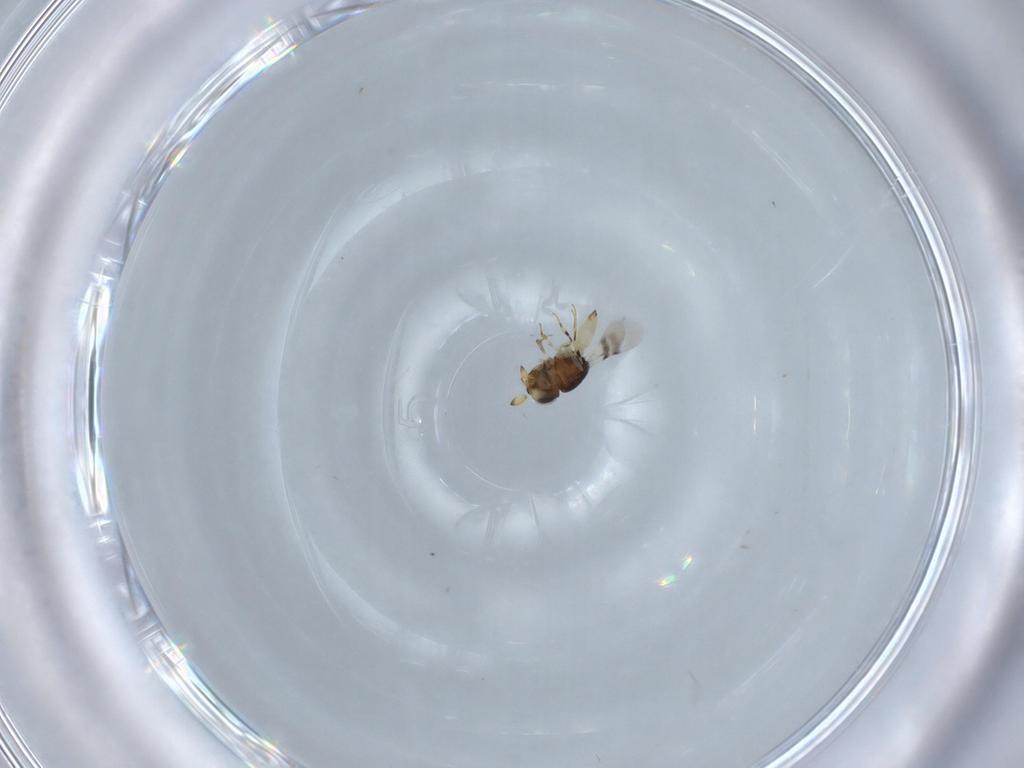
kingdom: Animalia
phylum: Arthropoda
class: Insecta
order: Hymenoptera
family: Scelionidae
